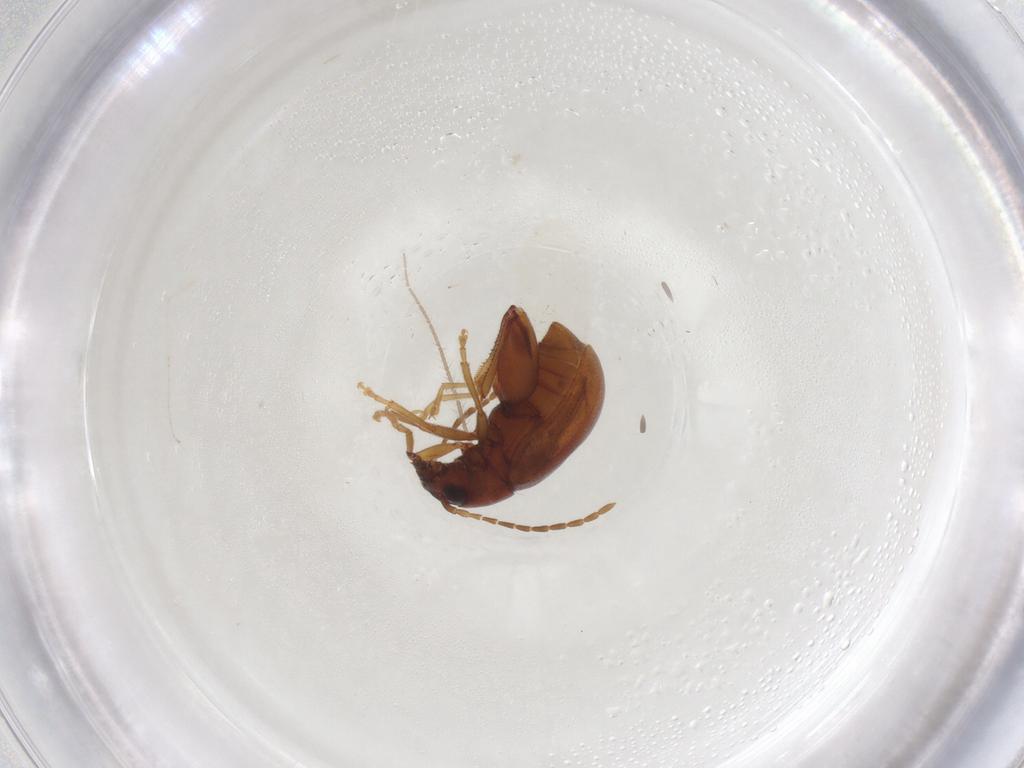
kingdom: Animalia
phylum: Arthropoda
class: Insecta
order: Coleoptera
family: Chrysomelidae
